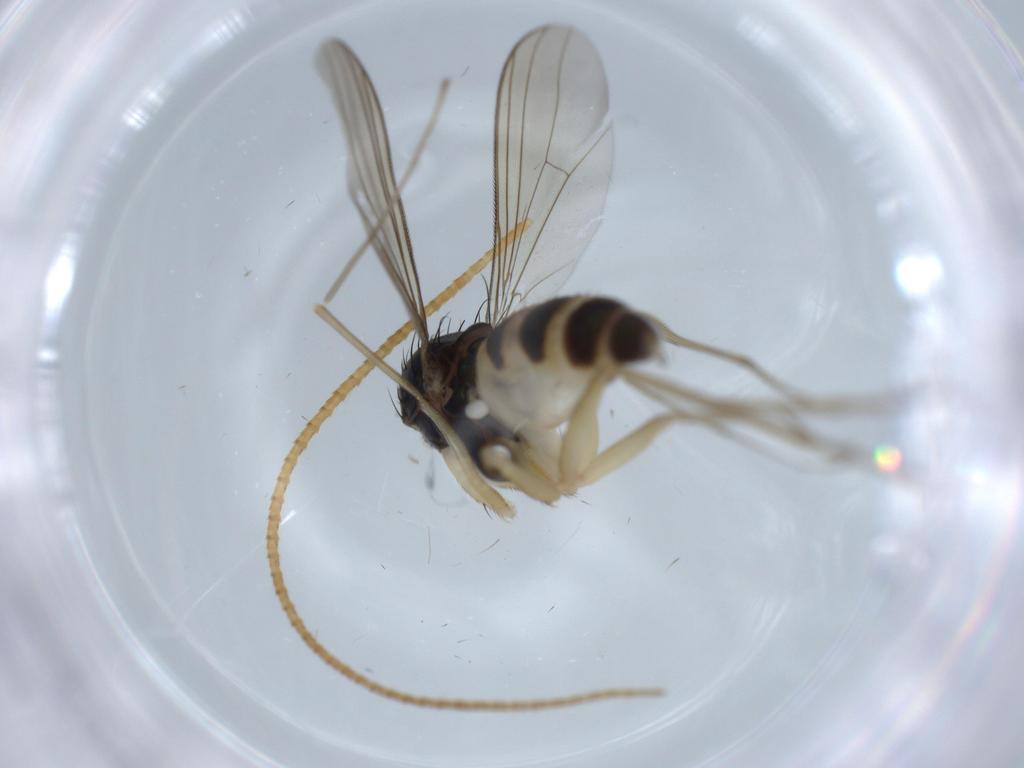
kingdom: Animalia
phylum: Arthropoda
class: Insecta
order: Diptera
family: Dolichopodidae
